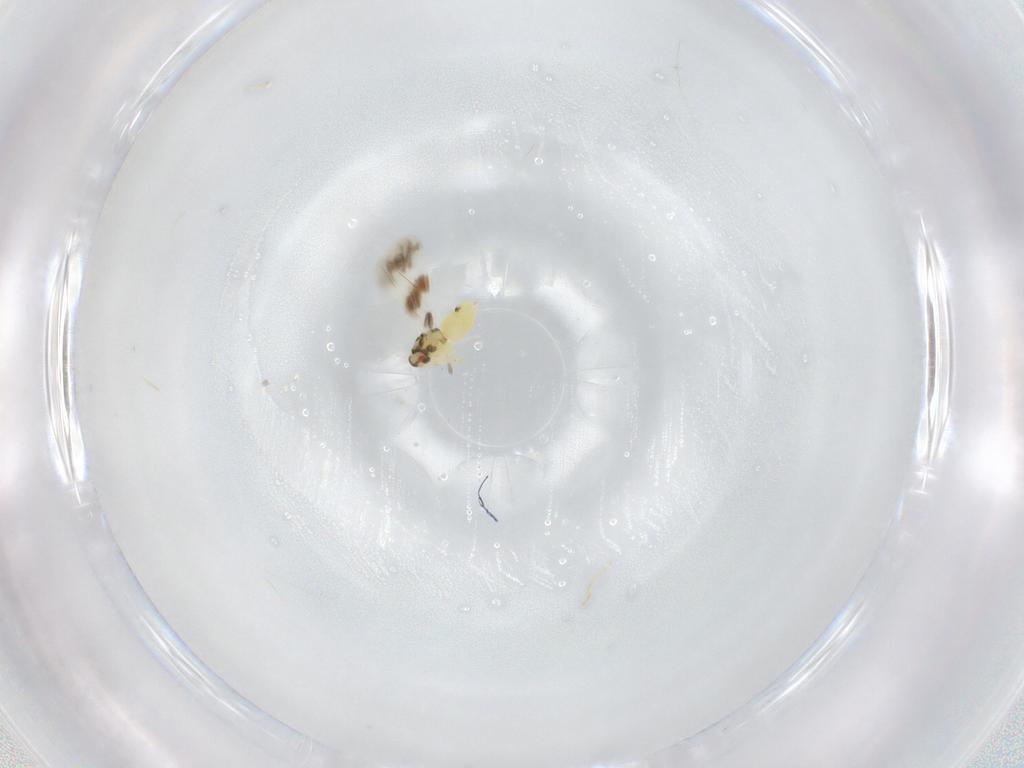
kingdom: Animalia
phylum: Arthropoda
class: Insecta
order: Hemiptera
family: Aleyrodidae
